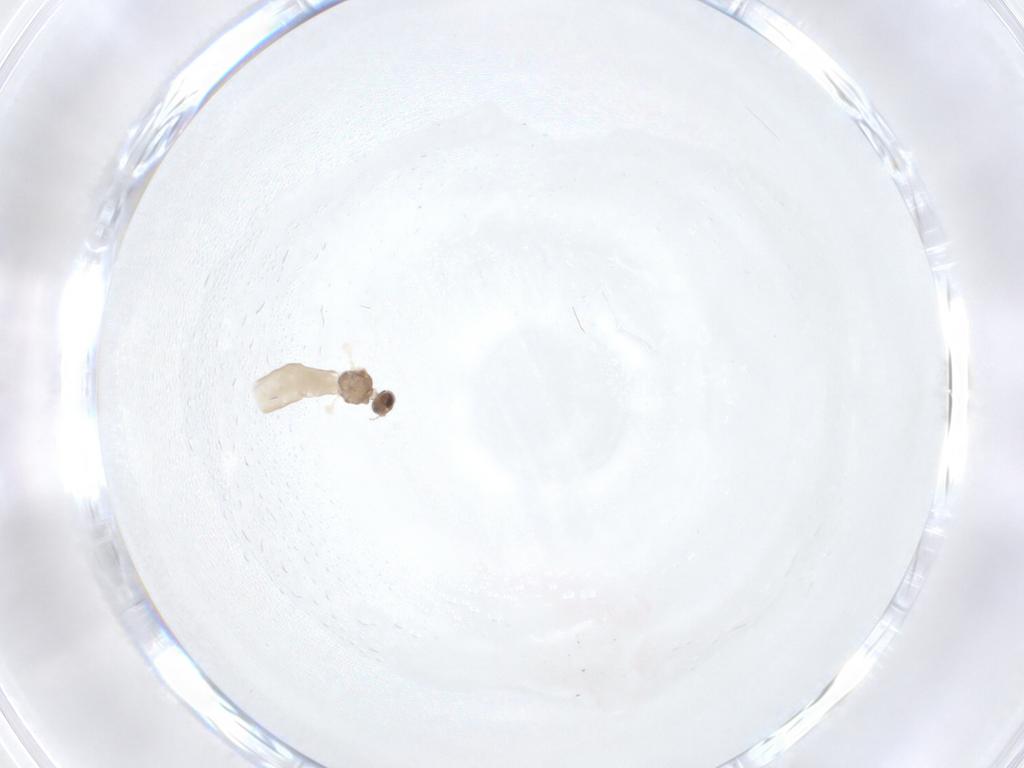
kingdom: Animalia
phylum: Arthropoda
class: Insecta
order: Diptera
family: Cecidomyiidae
